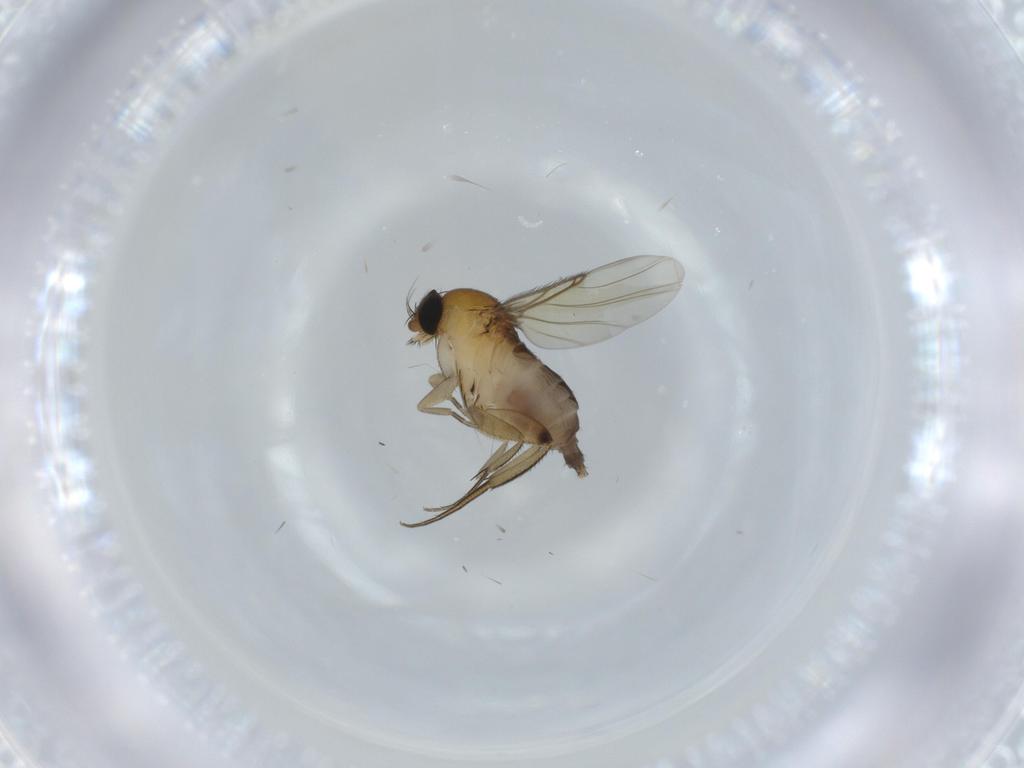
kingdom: Animalia
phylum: Arthropoda
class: Insecta
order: Diptera
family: Phoridae
